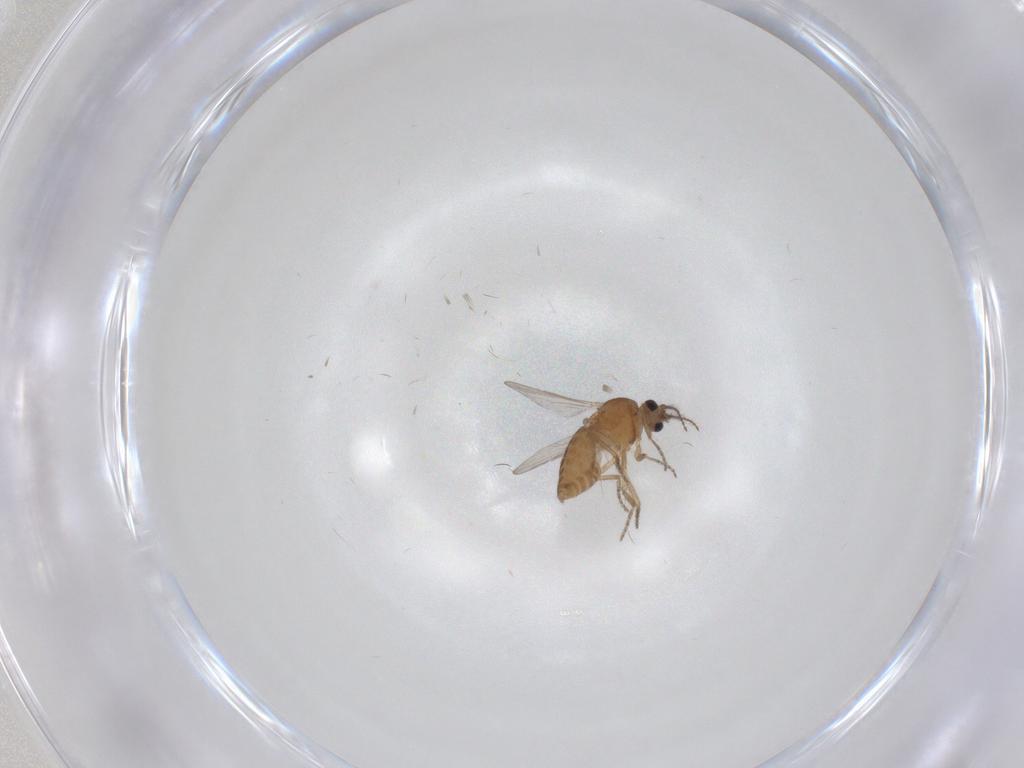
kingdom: Animalia
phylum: Arthropoda
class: Insecta
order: Diptera
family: Ceratopogonidae
